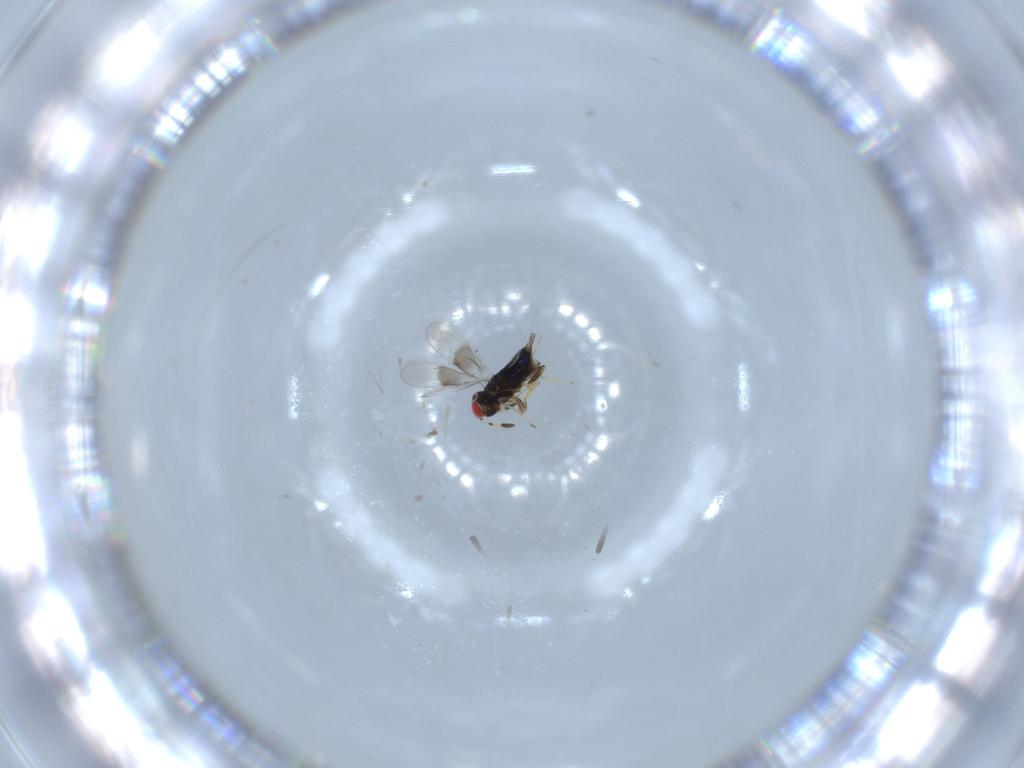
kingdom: Animalia
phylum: Arthropoda
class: Insecta
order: Hymenoptera
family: Azotidae
